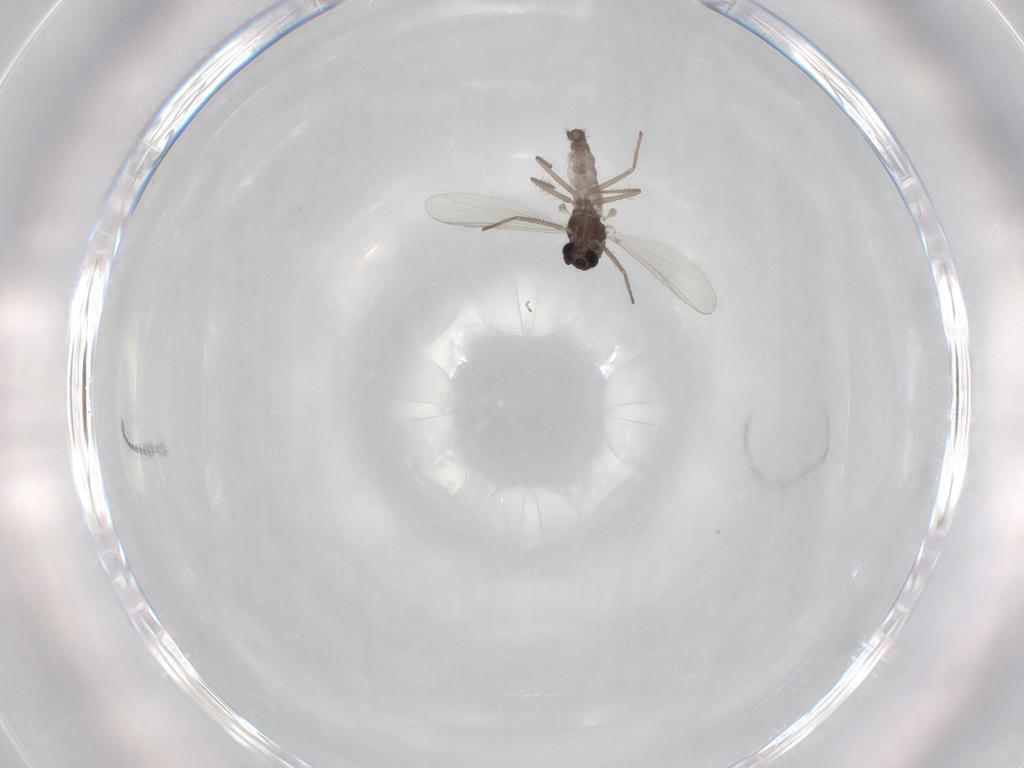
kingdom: Animalia
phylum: Arthropoda
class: Insecta
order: Diptera
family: Chironomidae
